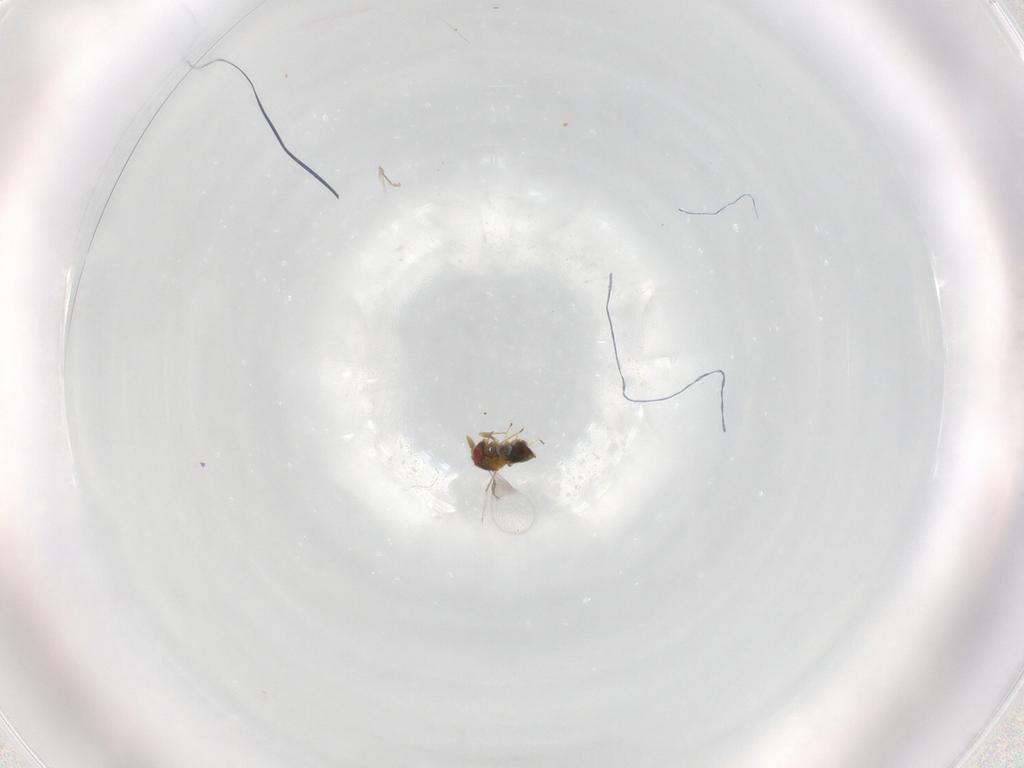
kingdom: Animalia
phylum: Arthropoda
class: Insecta
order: Hymenoptera
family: Trichogrammatidae
